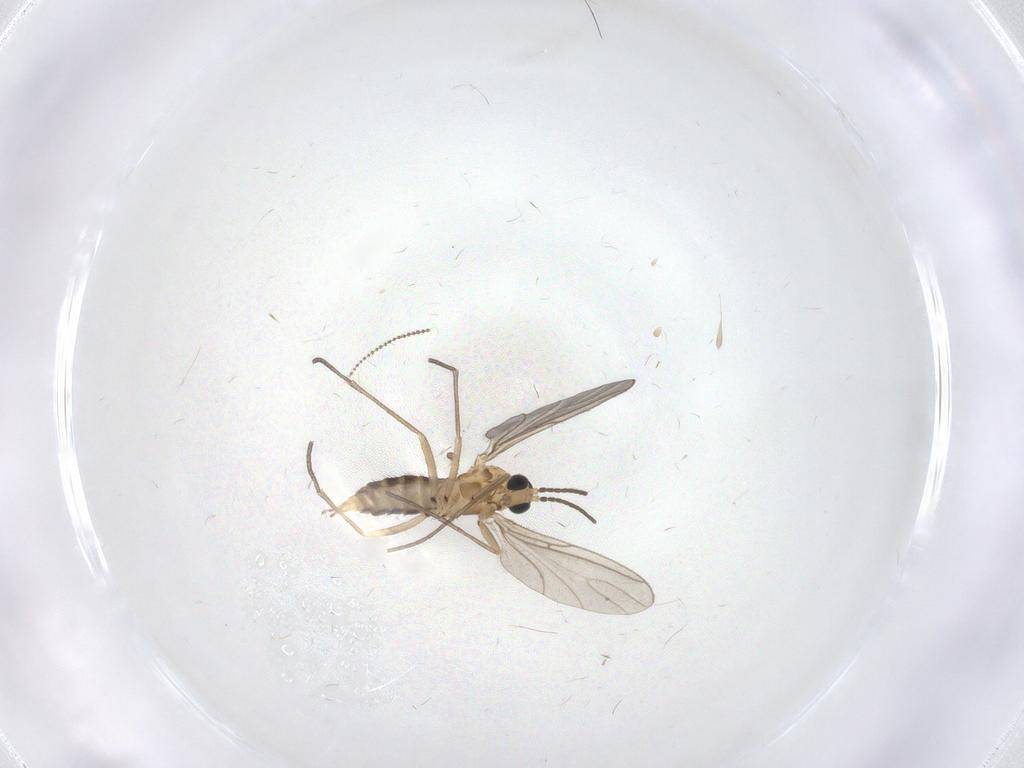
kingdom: Animalia
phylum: Arthropoda
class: Insecta
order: Diptera
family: Sciaridae
